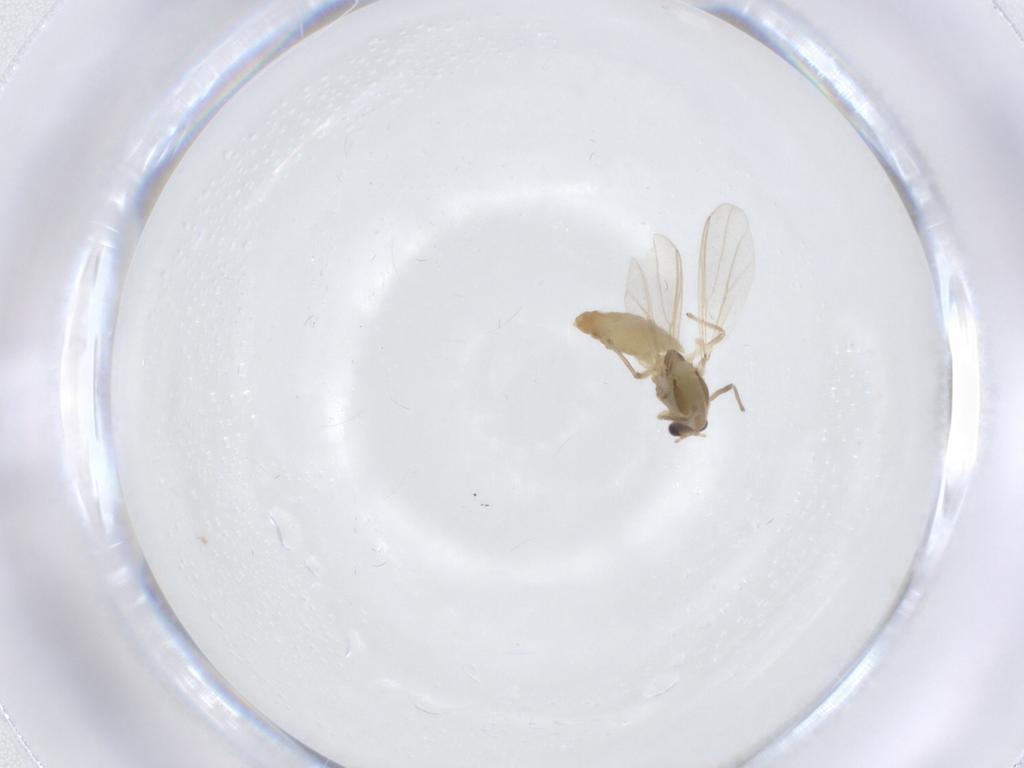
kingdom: Animalia
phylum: Arthropoda
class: Insecta
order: Diptera
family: Chironomidae
